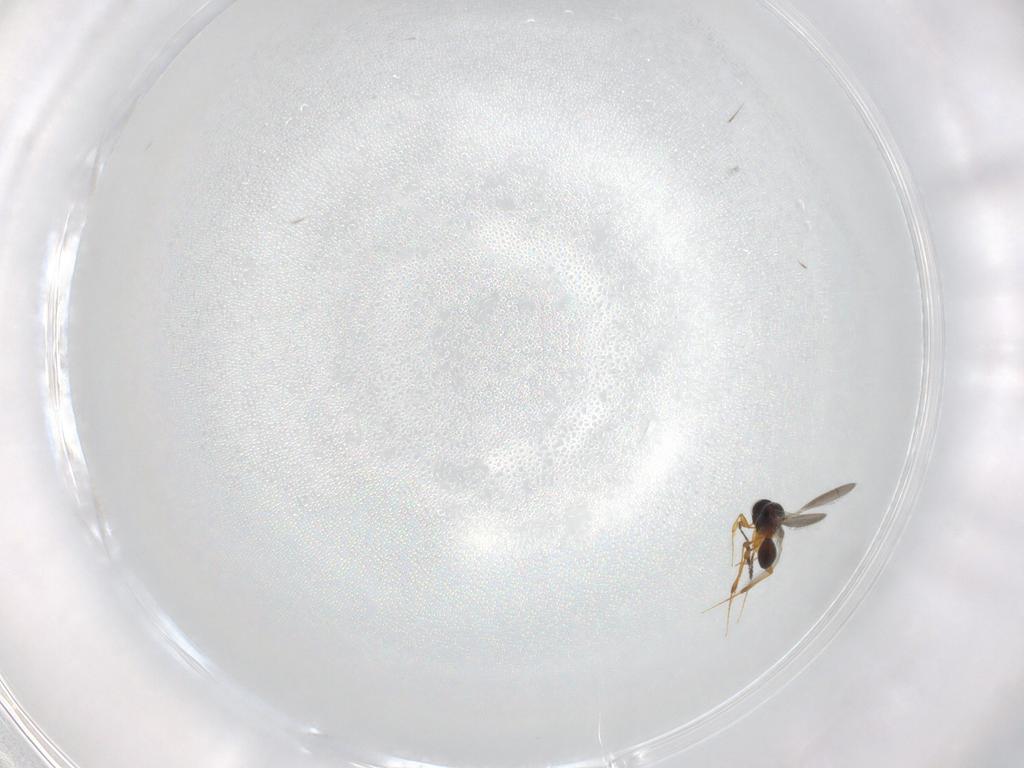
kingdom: Animalia
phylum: Arthropoda
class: Insecta
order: Hymenoptera
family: Platygastridae
